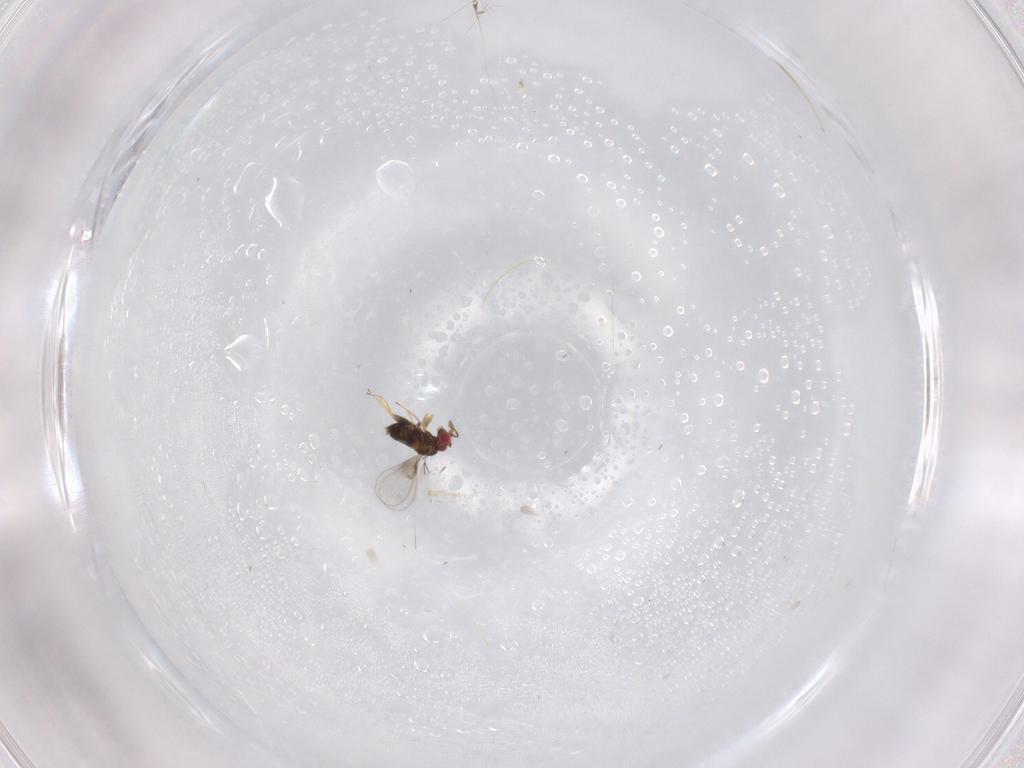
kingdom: Animalia
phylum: Arthropoda
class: Insecta
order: Hymenoptera
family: Trichogrammatidae
